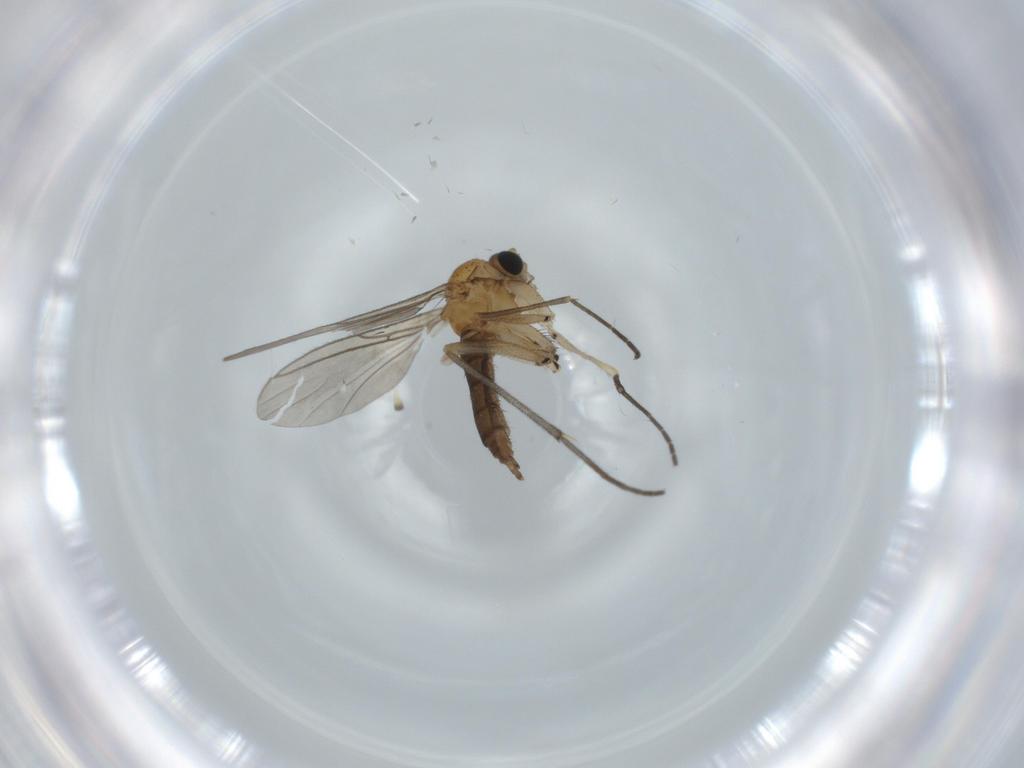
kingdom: Animalia
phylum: Arthropoda
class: Insecta
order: Diptera
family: Sciaridae
